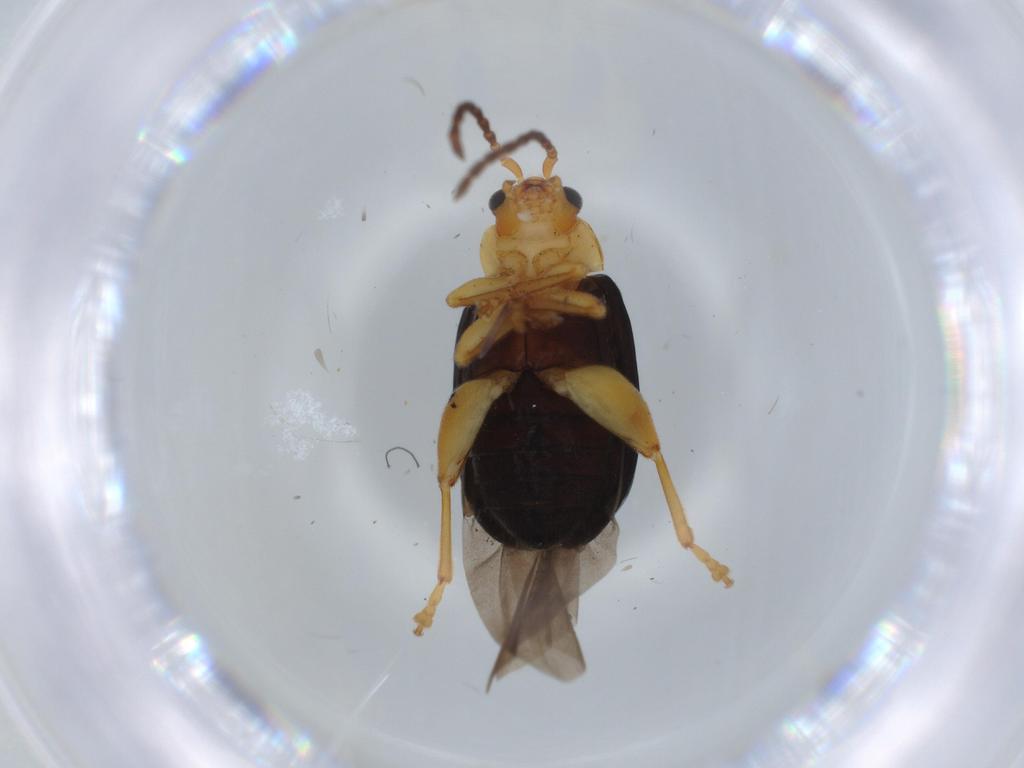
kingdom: Animalia
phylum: Arthropoda
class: Insecta
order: Coleoptera
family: Chrysomelidae
